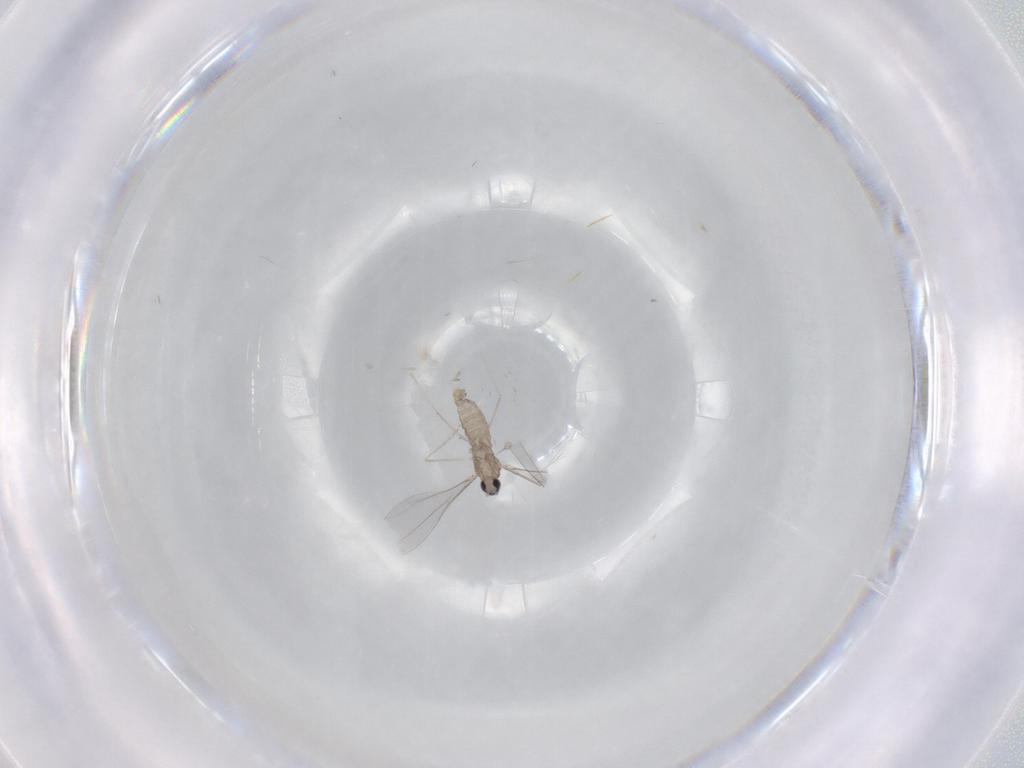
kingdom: Animalia
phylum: Arthropoda
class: Insecta
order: Diptera
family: Cecidomyiidae
